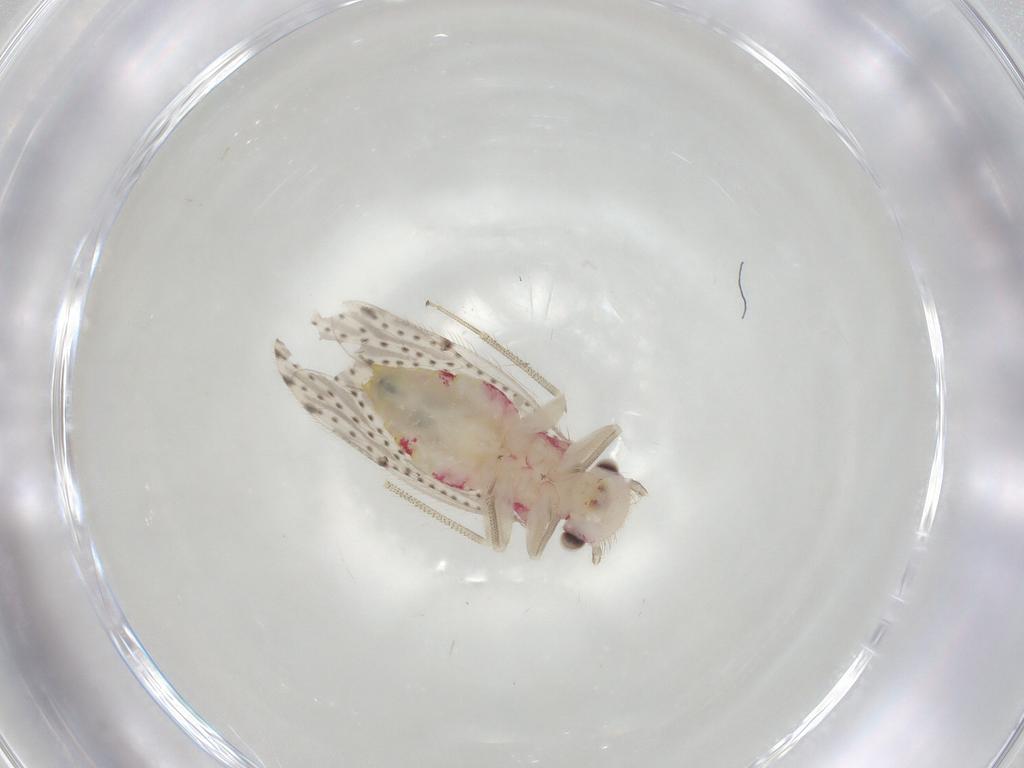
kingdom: Animalia
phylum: Arthropoda
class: Insecta
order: Psocodea
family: Hemipsocidae
